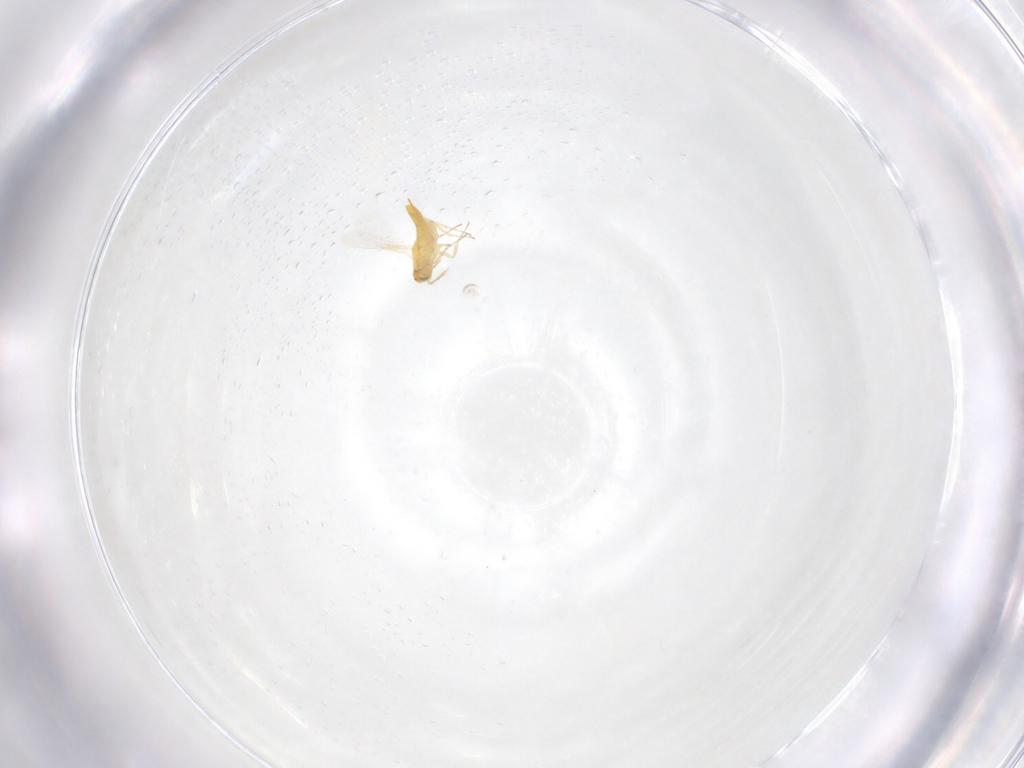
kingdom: Animalia
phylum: Arthropoda
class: Insecta
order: Hymenoptera
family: Aphelinidae
